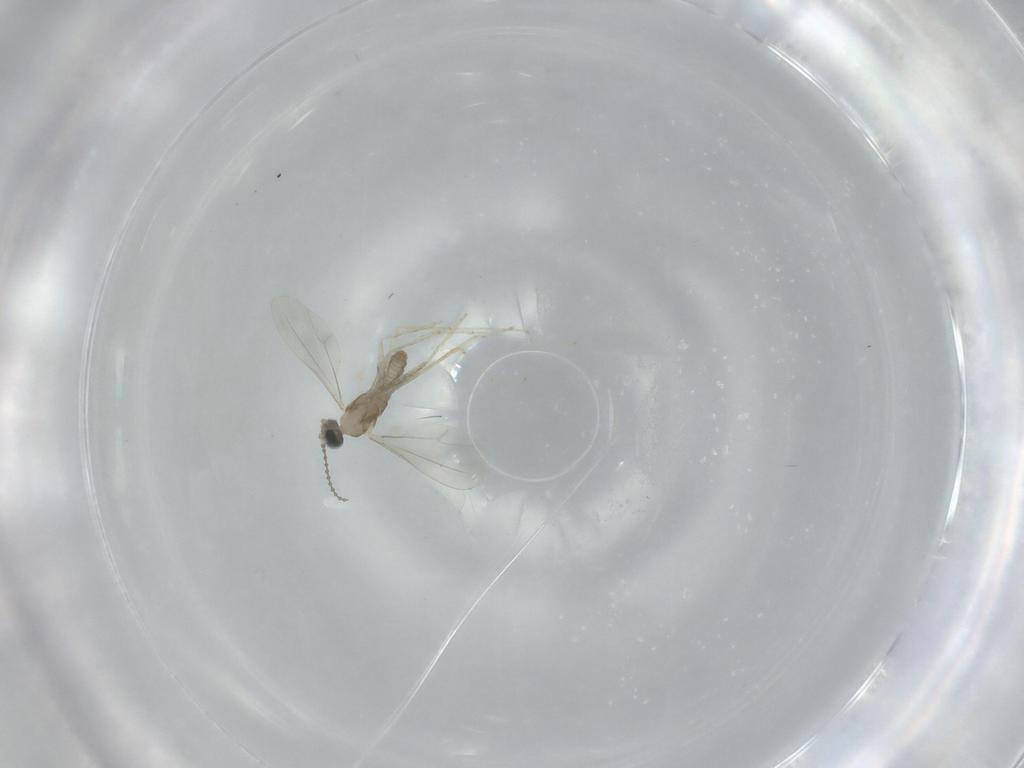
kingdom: Animalia
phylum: Arthropoda
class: Insecta
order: Diptera
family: Cecidomyiidae
